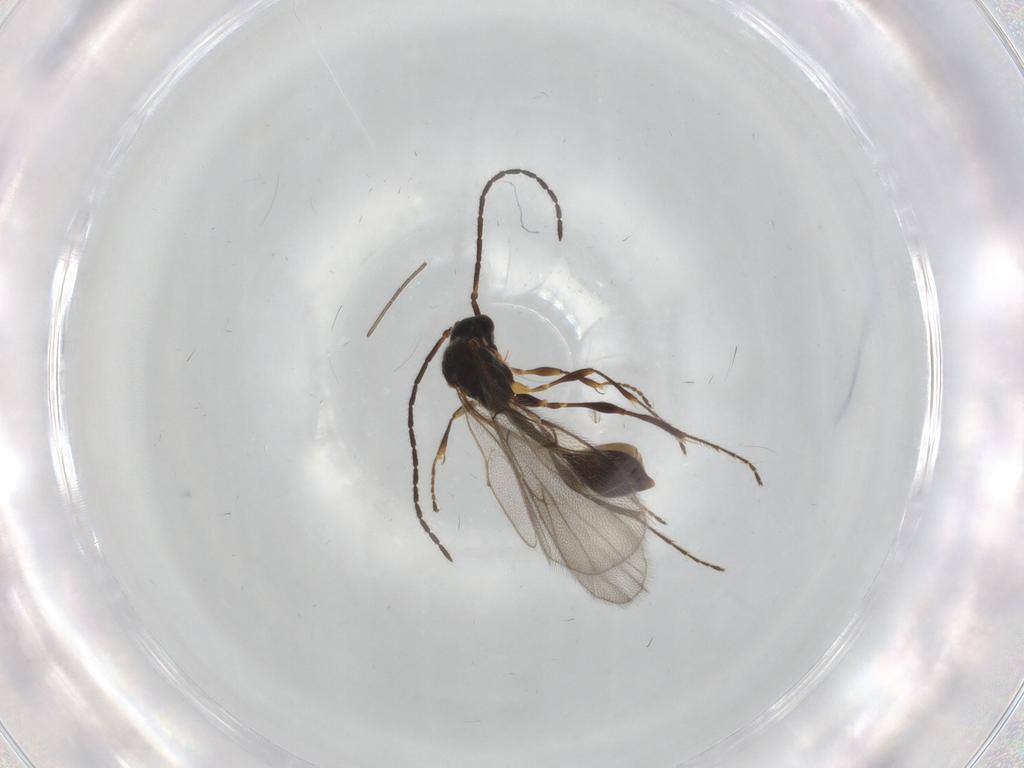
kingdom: Animalia
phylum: Arthropoda
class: Insecta
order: Hymenoptera
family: Diapriidae
